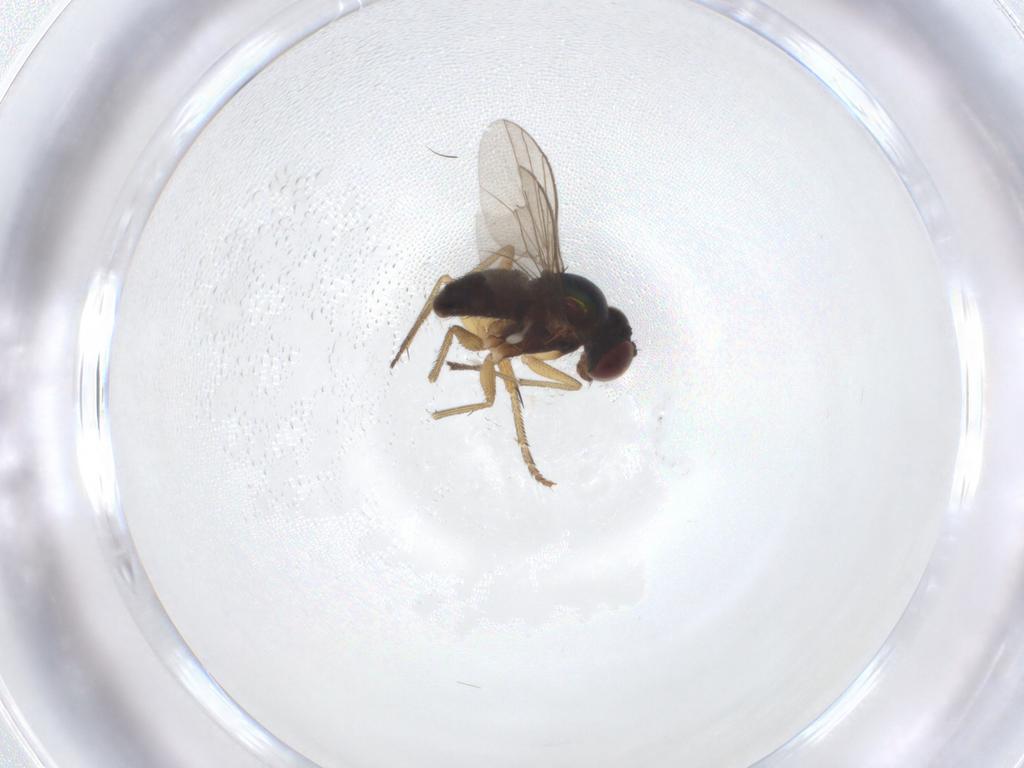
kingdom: Animalia
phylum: Arthropoda
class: Insecta
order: Diptera
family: Dolichopodidae
